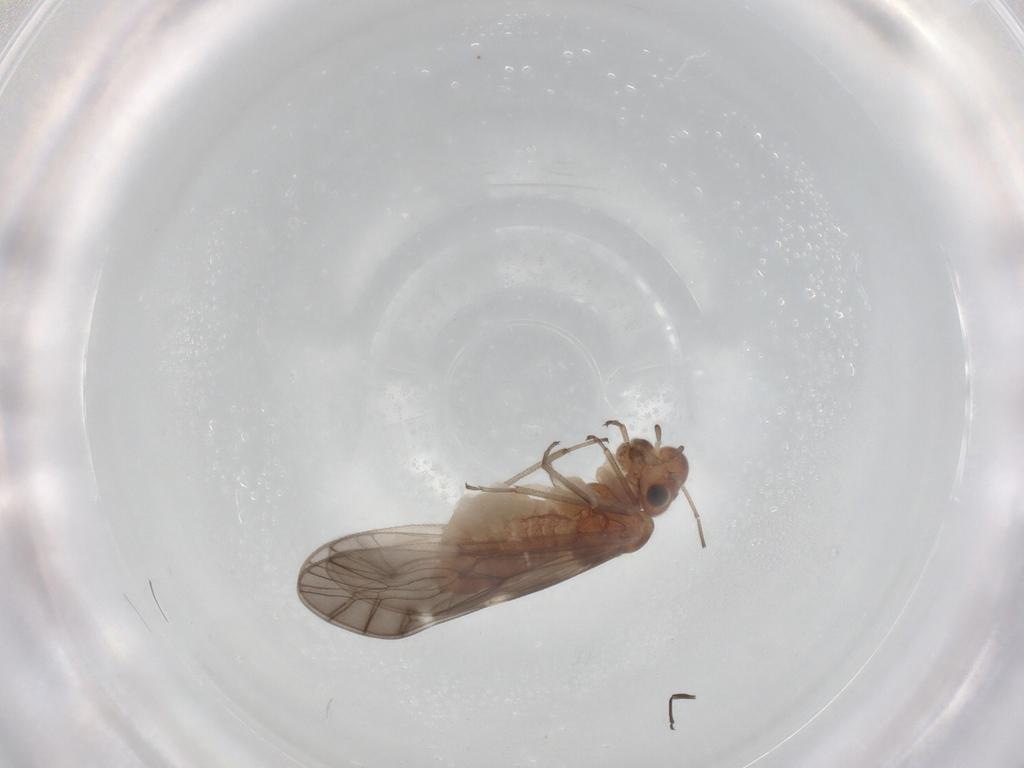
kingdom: Animalia
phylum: Arthropoda
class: Insecta
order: Psocodea
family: Caeciliusidae
